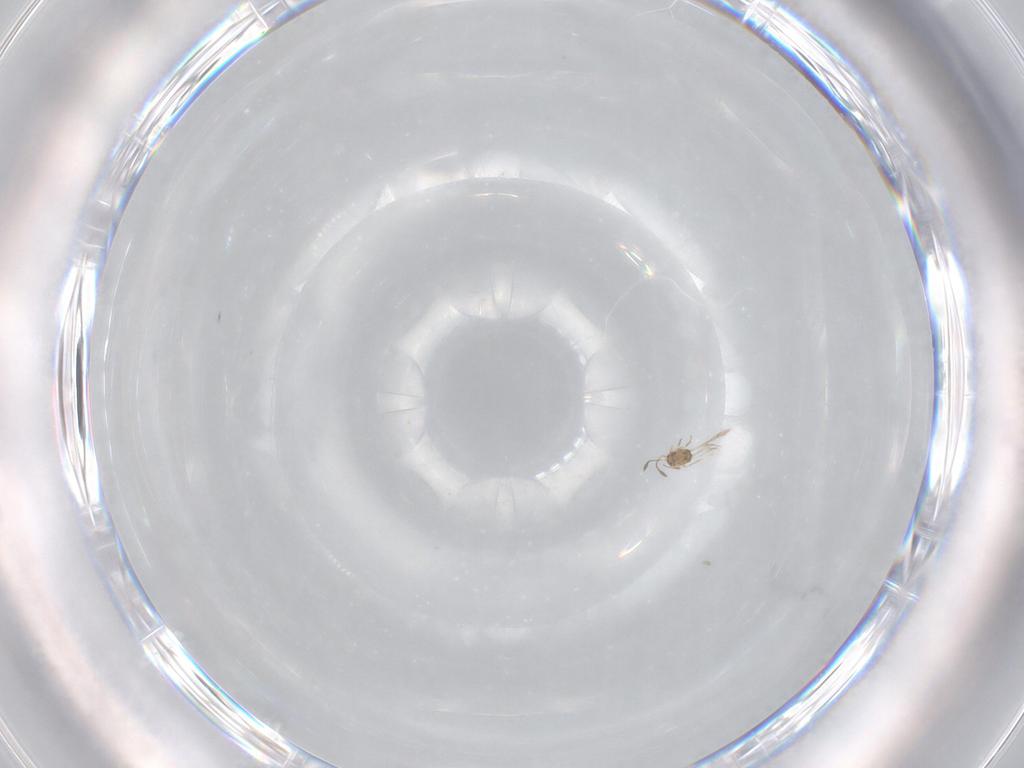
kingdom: Animalia
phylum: Arthropoda
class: Insecta
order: Hymenoptera
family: Mymaridae
